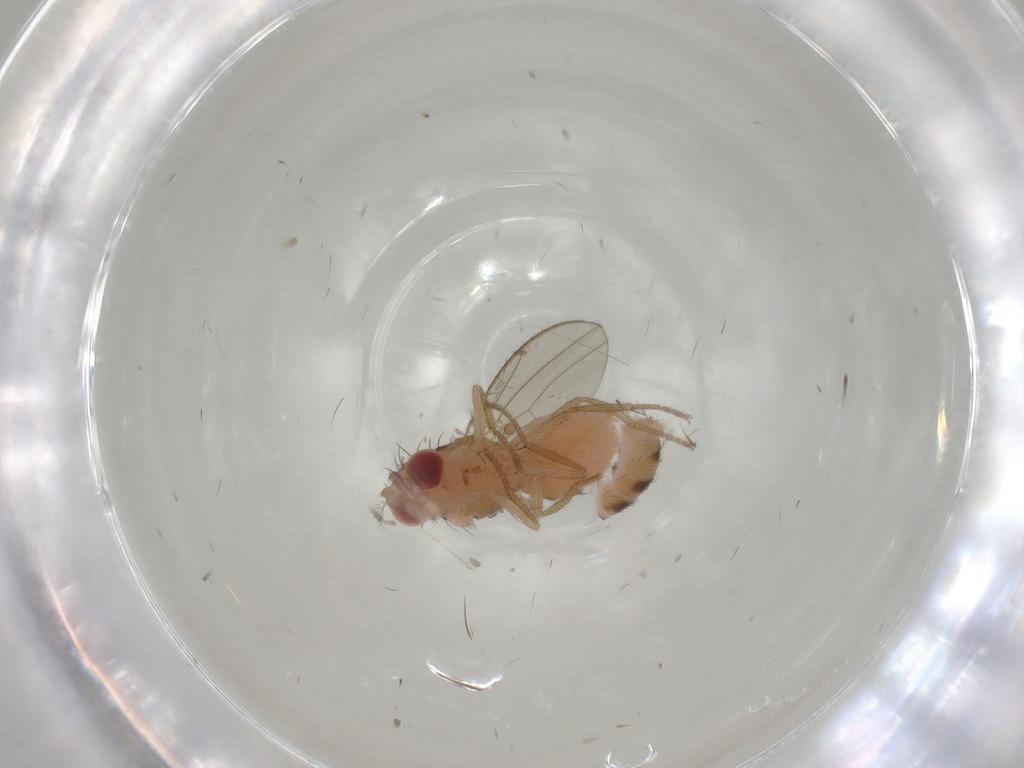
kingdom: Animalia
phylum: Arthropoda
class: Insecta
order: Diptera
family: Drosophilidae
